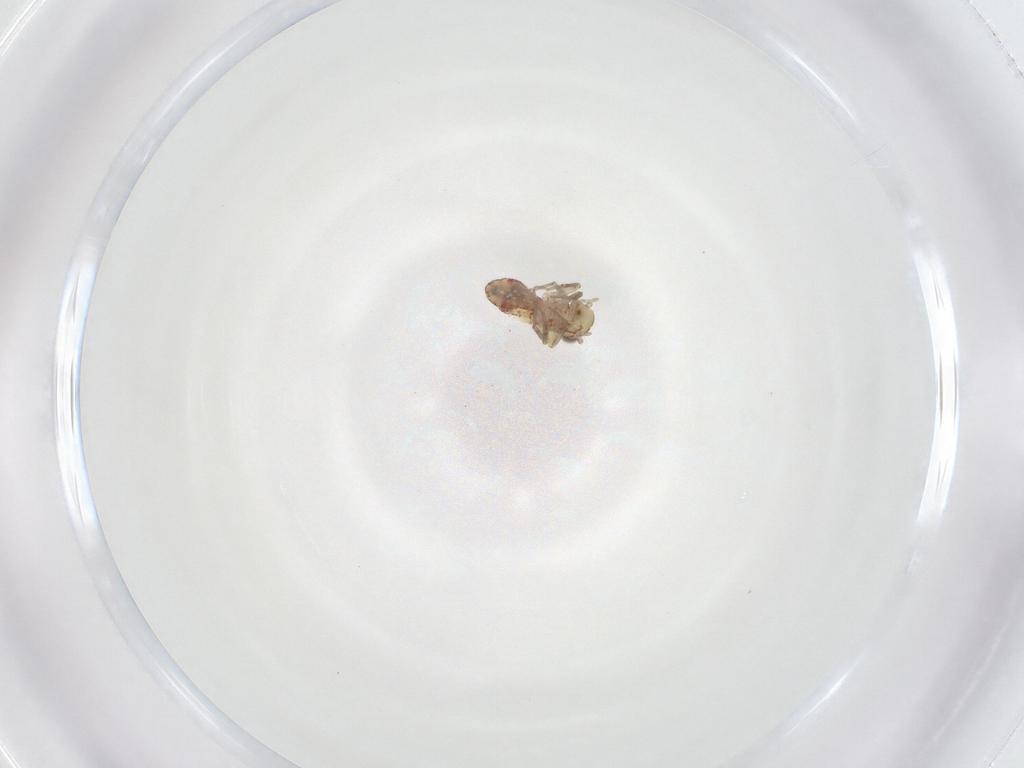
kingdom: Animalia
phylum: Arthropoda
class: Insecta
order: Psocodea
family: Philotarsidae
